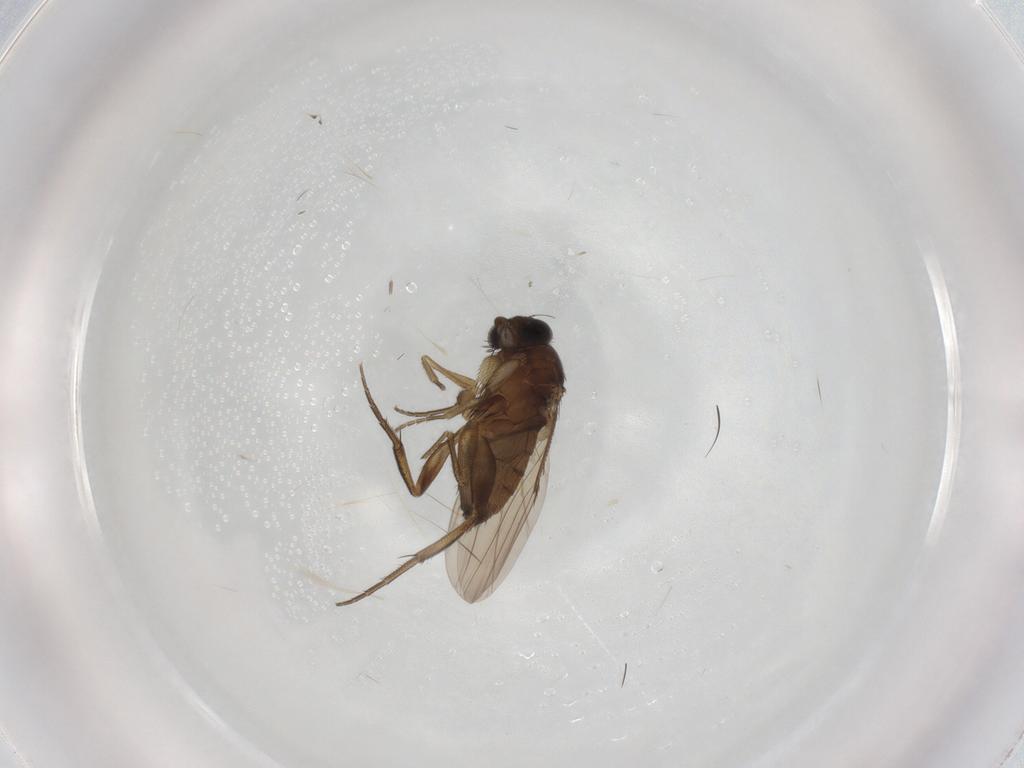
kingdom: Animalia
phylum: Arthropoda
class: Insecta
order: Diptera
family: Phoridae
